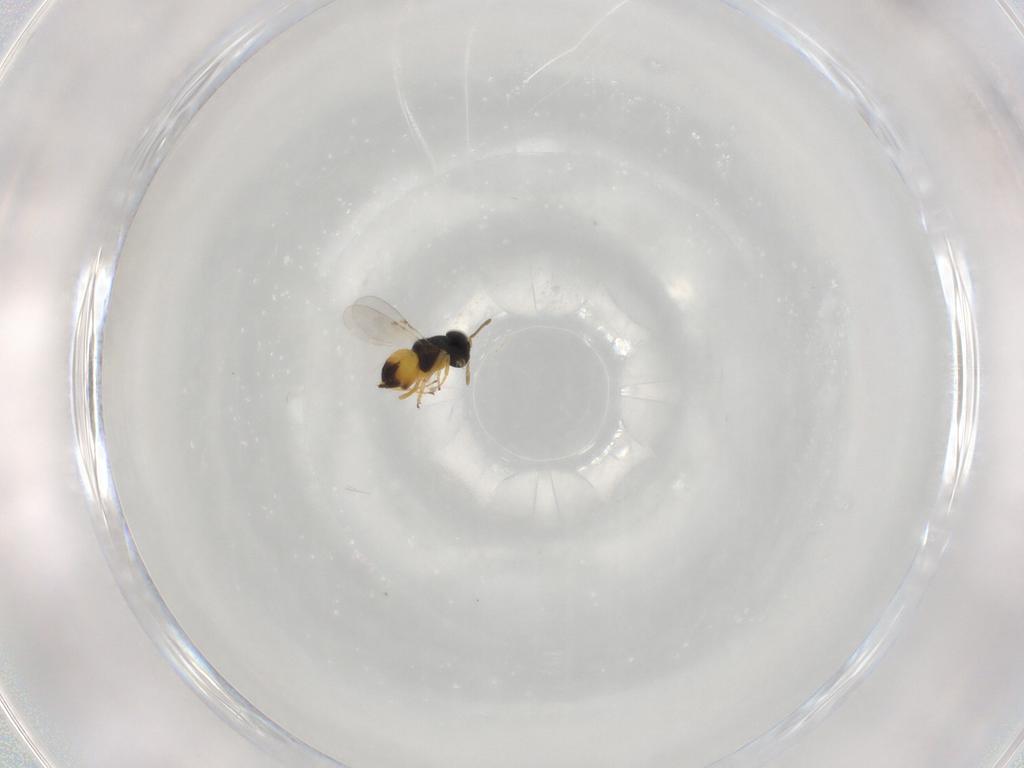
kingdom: Animalia
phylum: Arthropoda
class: Insecta
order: Hymenoptera
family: Encyrtidae
